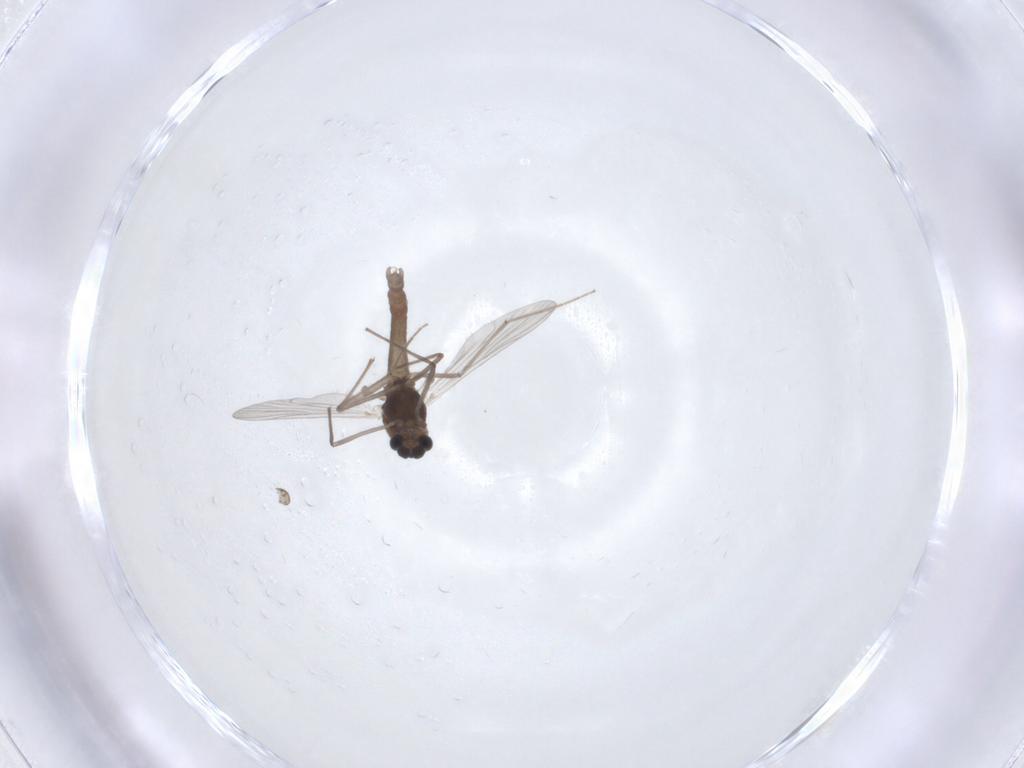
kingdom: Animalia
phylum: Arthropoda
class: Insecta
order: Diptera
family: Chironomidae
